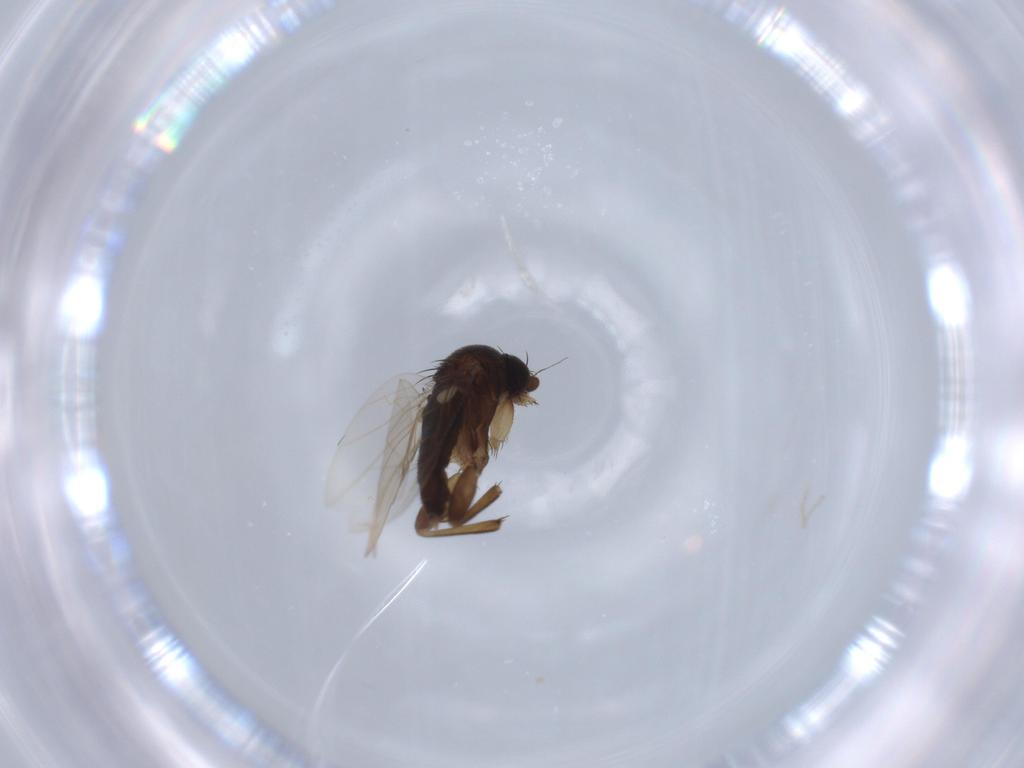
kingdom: Animalia
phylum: Arthropoda
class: Insecta
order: Diptera
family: Phoridae
